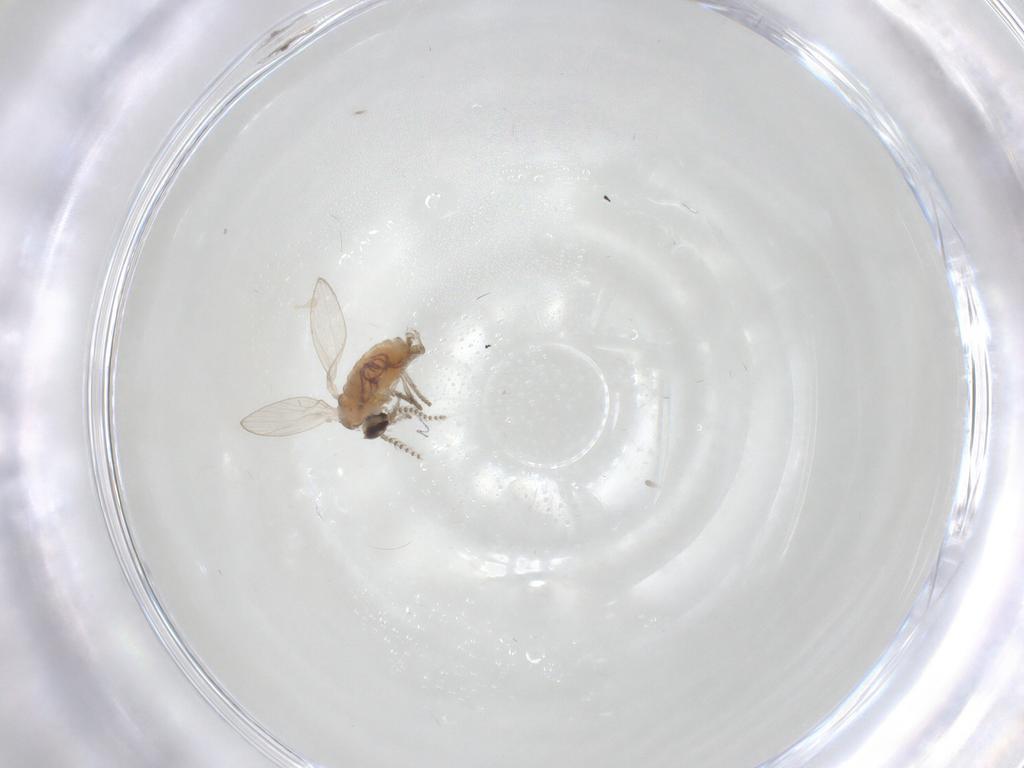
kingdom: Animalia
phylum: Arthropoda
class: Insecta
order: Diptera
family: Psychodidae
